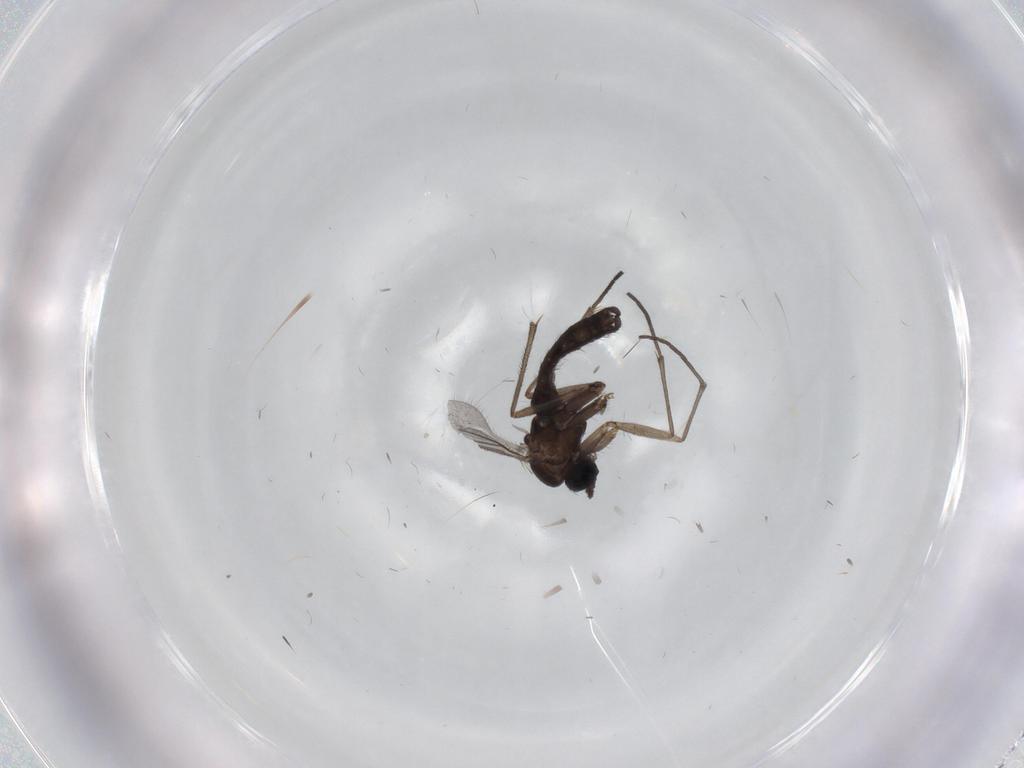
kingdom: Animalia
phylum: Arthropoda
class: Insecta
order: Diptera
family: Sciaridae
